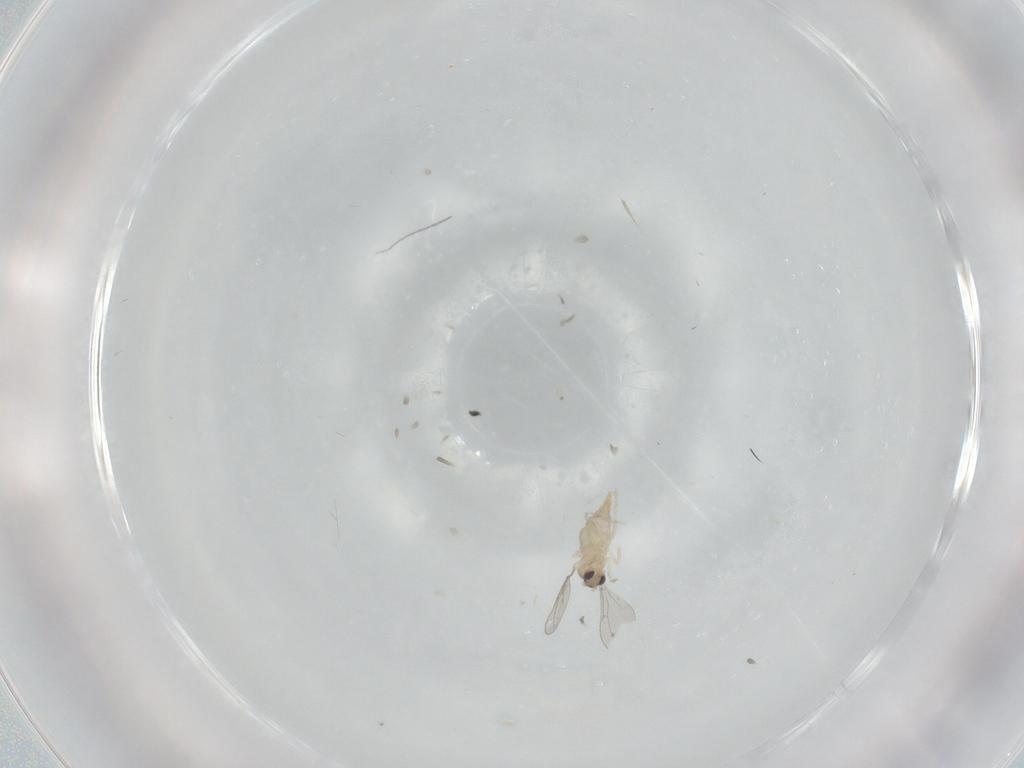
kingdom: Animalia
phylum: Arthropoda
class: Insecta
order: Diptera
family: Cecidomyiidae
